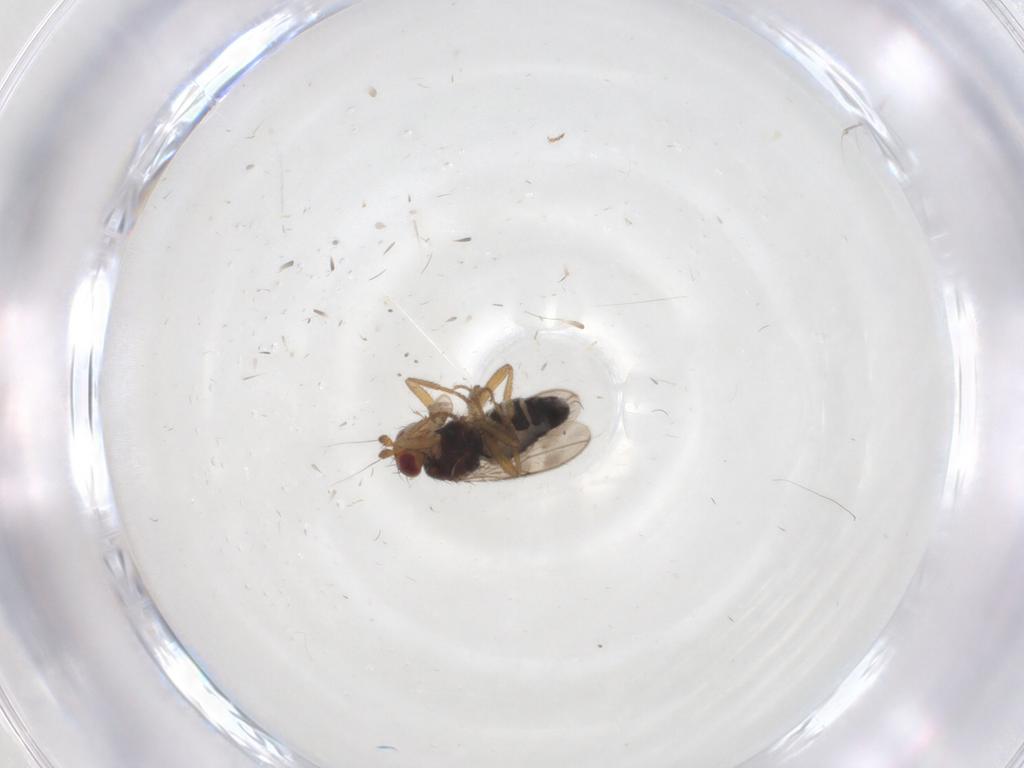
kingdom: Animalia
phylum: Arthropoda
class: Insecta
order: Diptera
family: Sphaeroceridae
